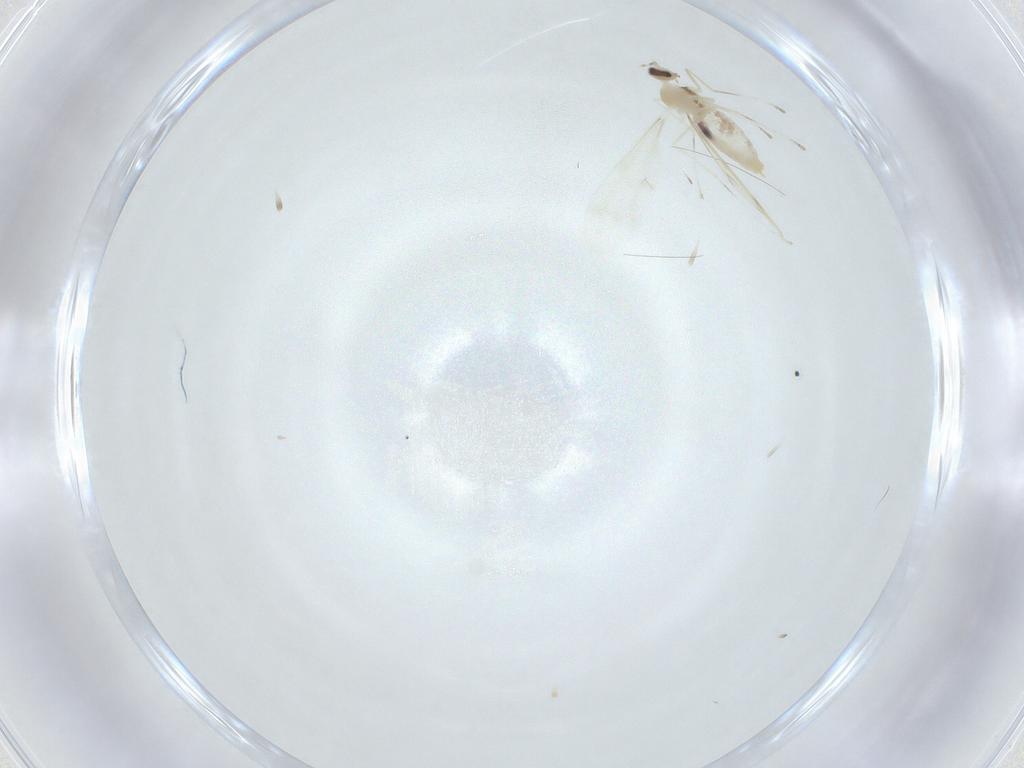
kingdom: Animalia
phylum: Arthropoda
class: Insecta
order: Diptera
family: Cecidomyiidae
